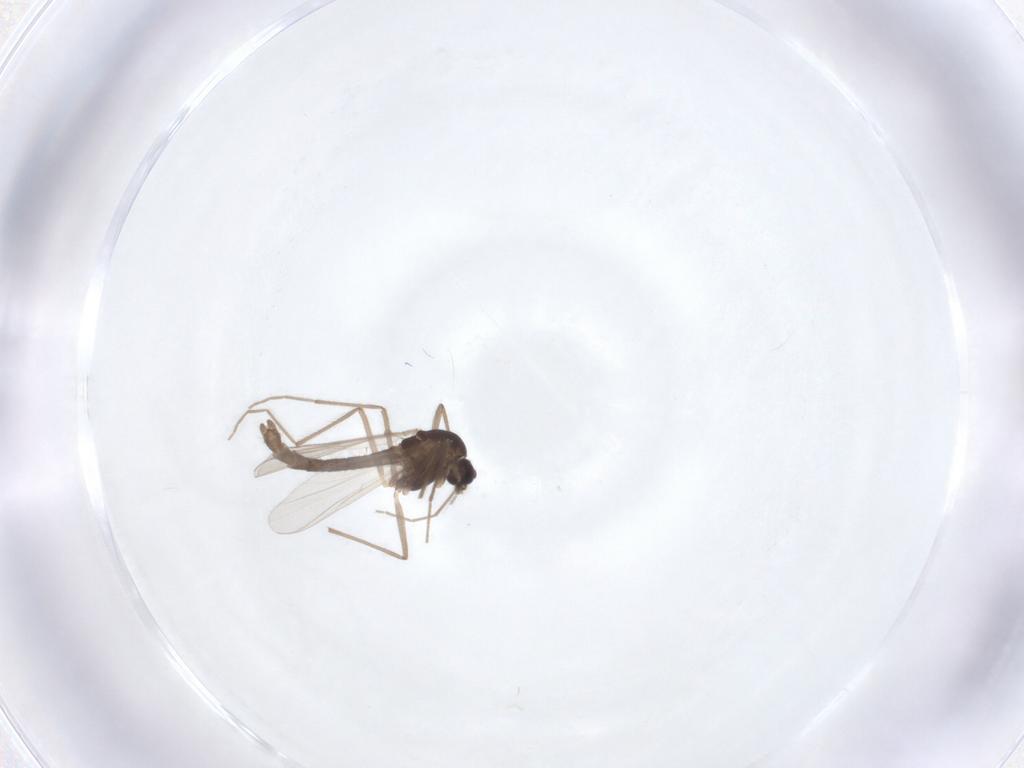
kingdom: Animalia
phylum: Arthropoda
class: Insecta
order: Diptera
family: Chironomidae
